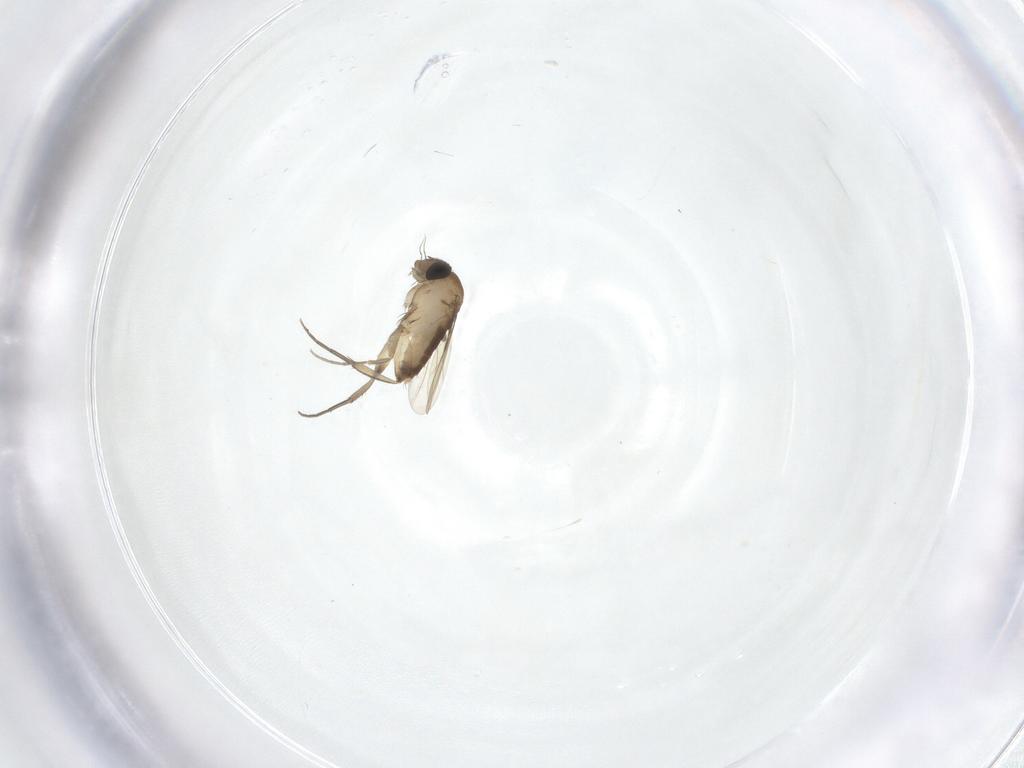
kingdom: Animalia
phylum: Arthropoda
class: Insecta
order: Diptera
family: Phoridae
